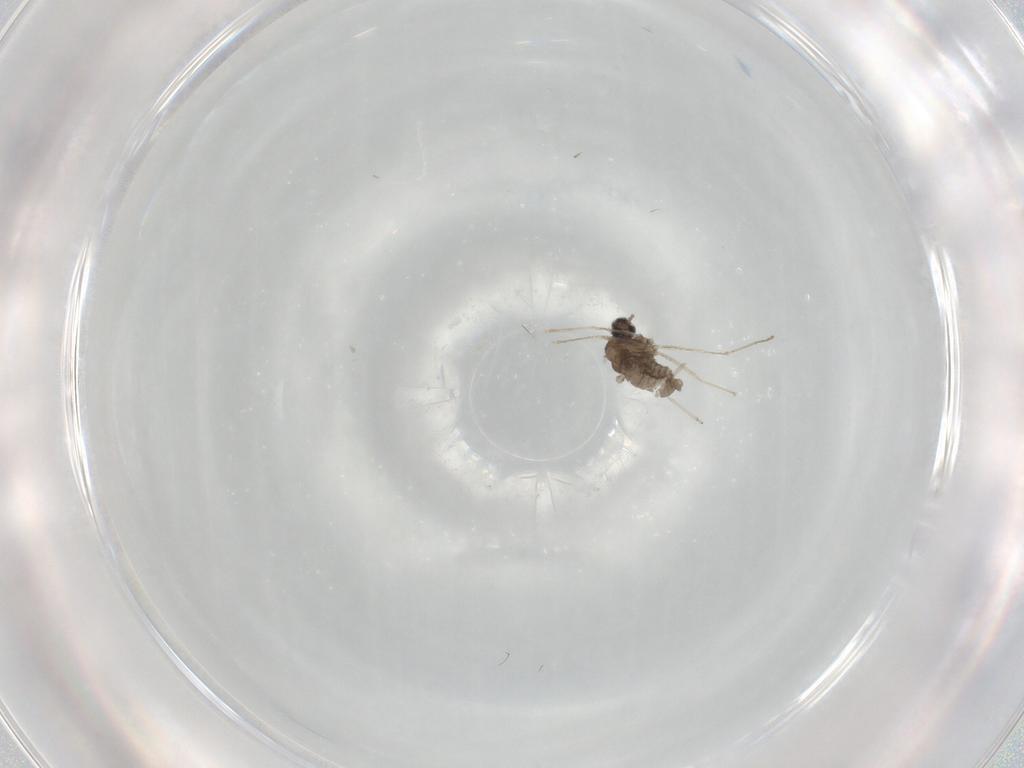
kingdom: Animalia
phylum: Arthropoda
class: Insecta
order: Diptera
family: Cecidomyiidae
